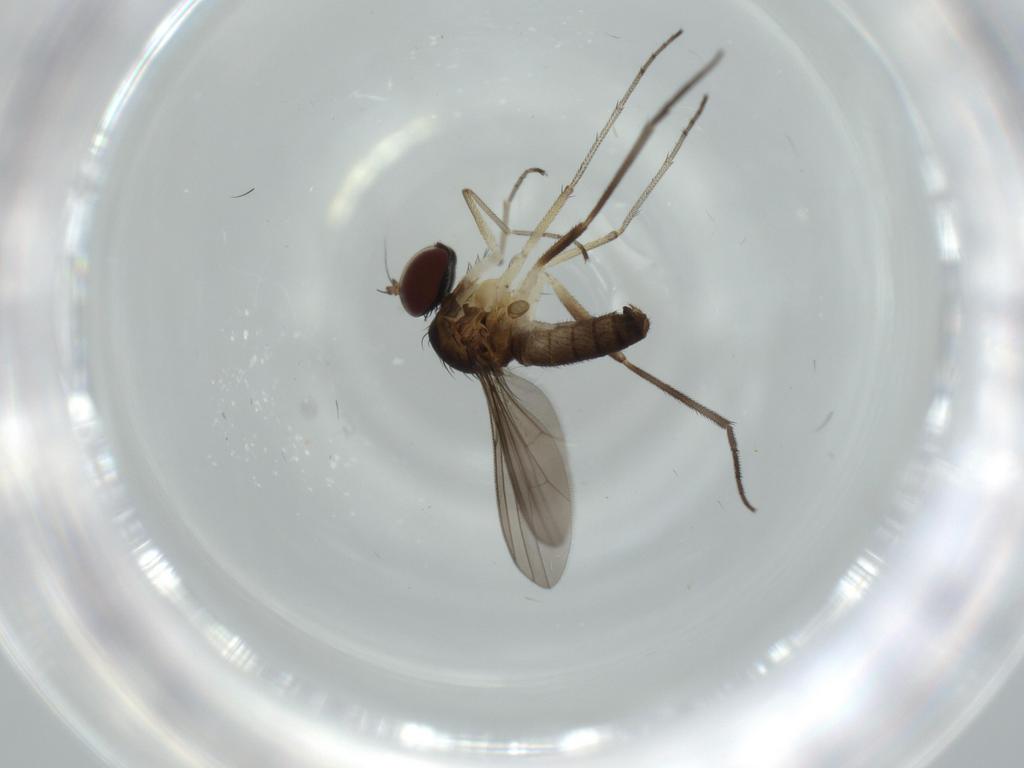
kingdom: Animalia
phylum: Arthropoda
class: Insecta
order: Diptera
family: Dolichopodidae
